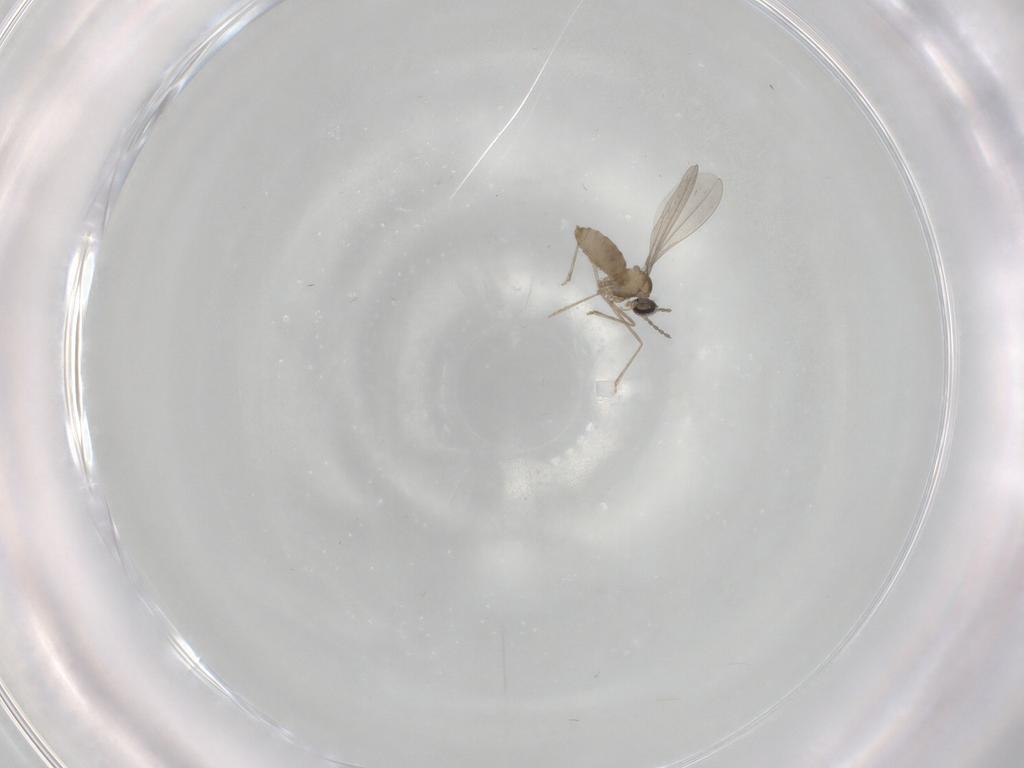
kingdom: Animalia
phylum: Arthropoda
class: Insecta
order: Diptera
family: Cecidomyiidae
